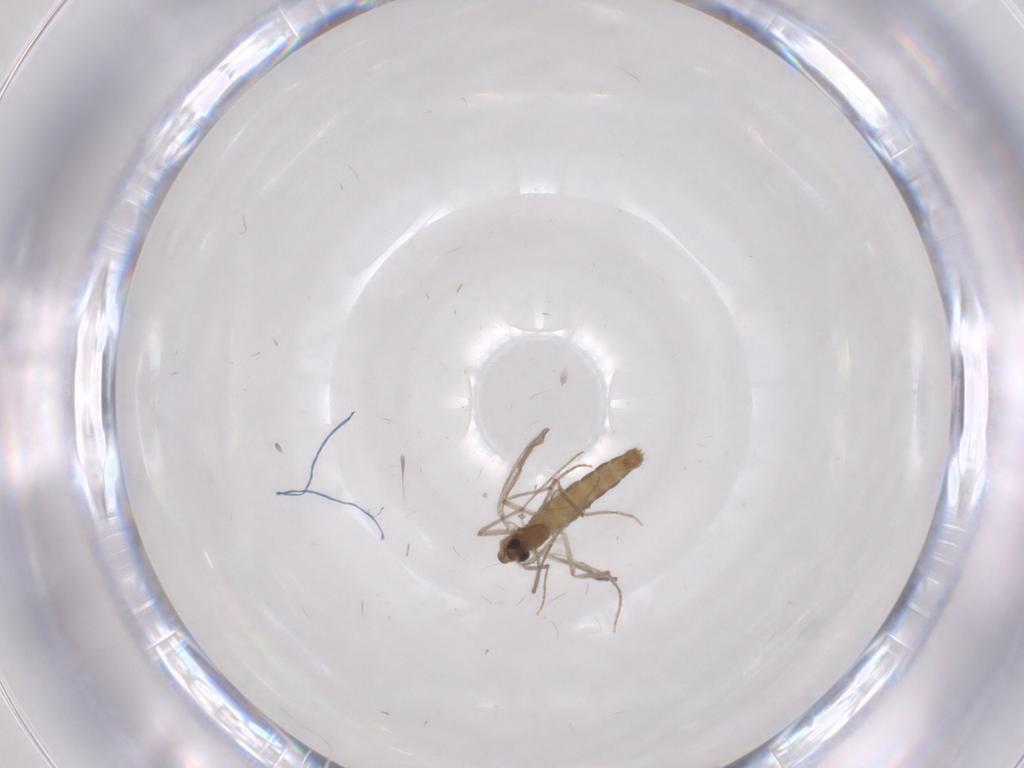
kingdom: Animalia
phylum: Arthropoda
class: Insecta
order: Diptera
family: Chironomidae
